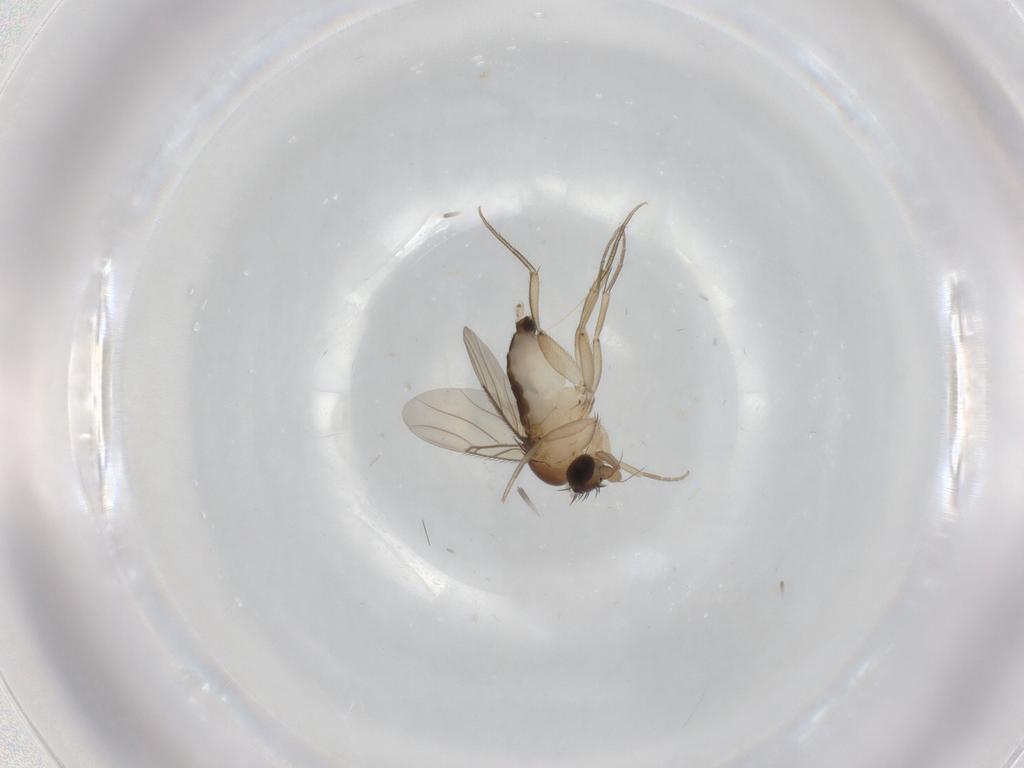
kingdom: Animalia
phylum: Arthropoda
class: Insecta
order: Diptera
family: Phoridae
